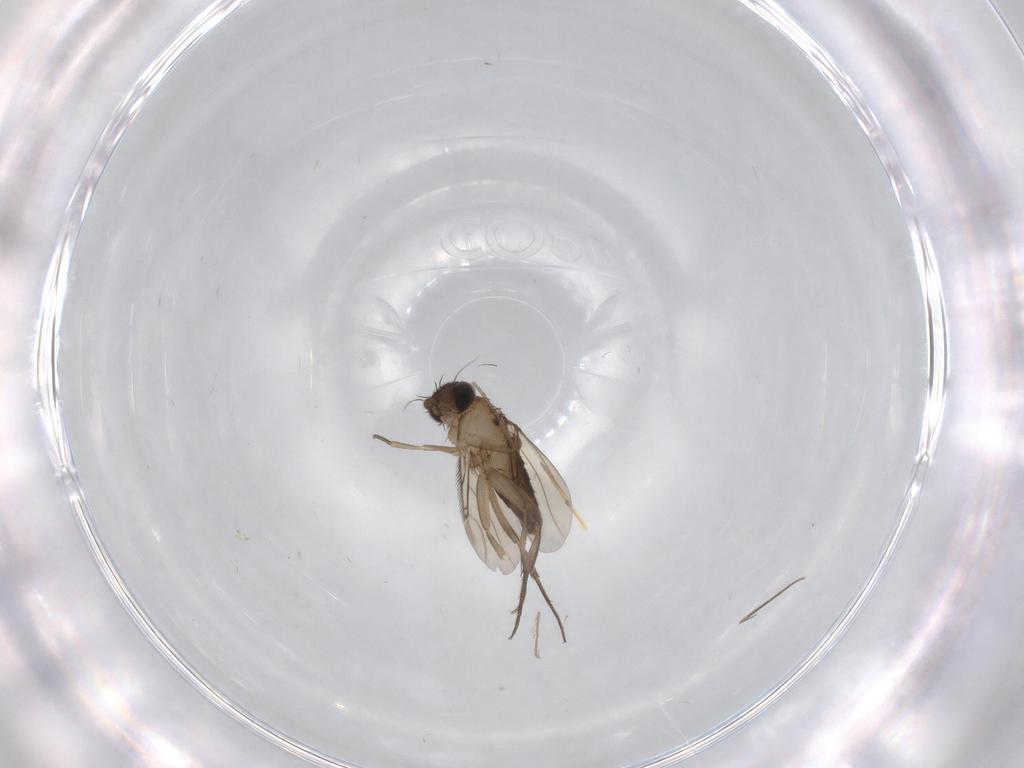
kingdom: Animalia
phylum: Arthropoda
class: Insecta
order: Diptera
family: Phoridae
